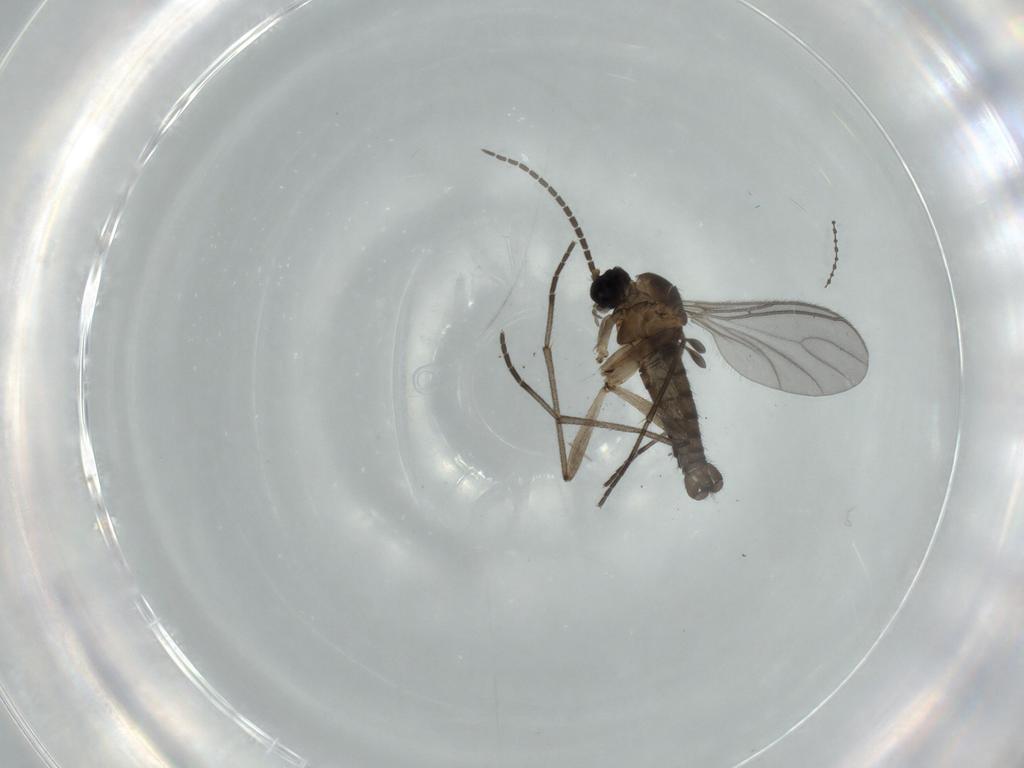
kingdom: Animalia
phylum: Arthropoda
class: Insecta
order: Diptera
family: Sciaridae
